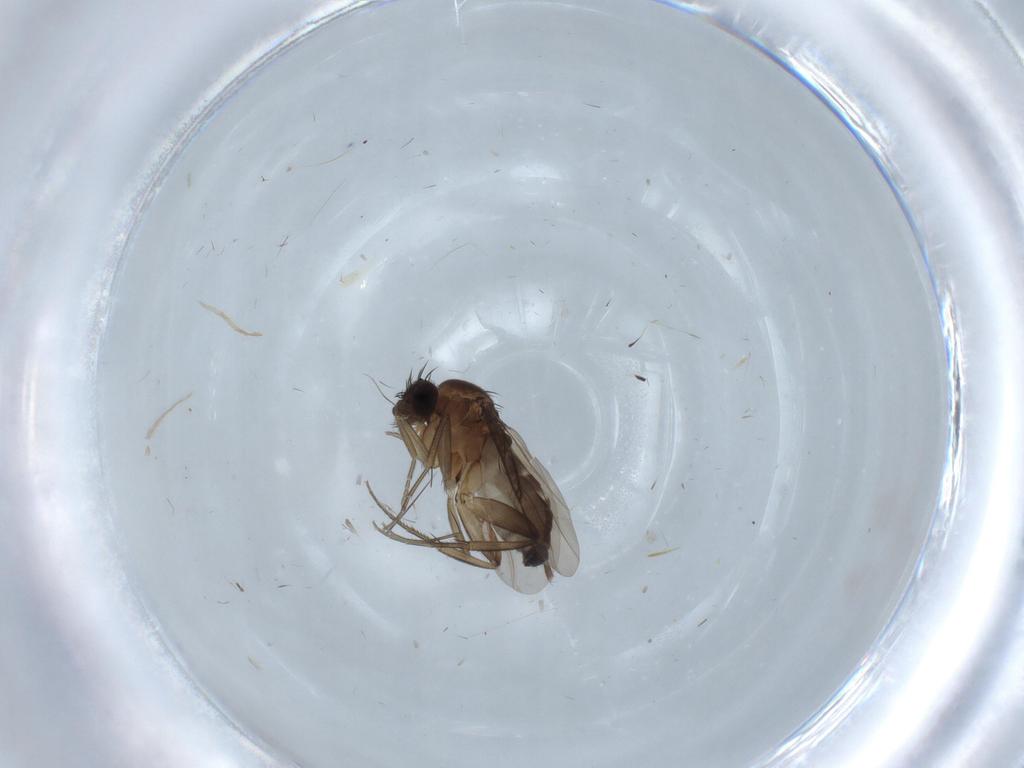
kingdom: Animalia
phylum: Arthropoda
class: Insecta
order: Diptera
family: Phoridae
